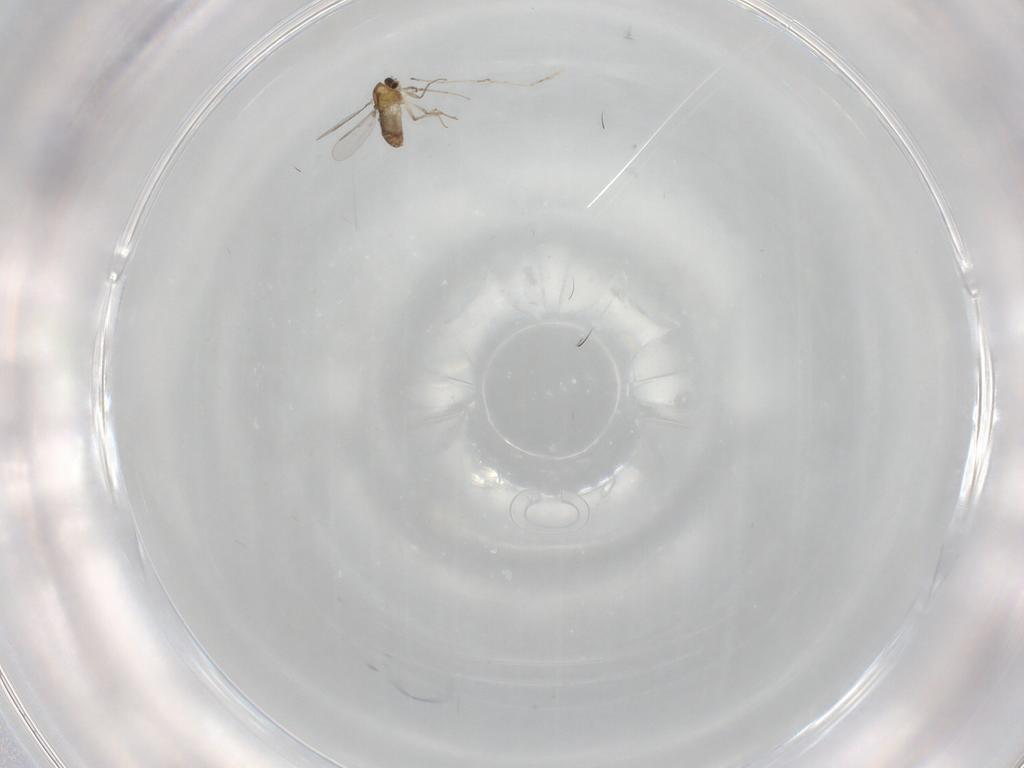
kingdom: Animalia
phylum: Arthropoda
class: Insecta
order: Diptera
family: Chironomidae
